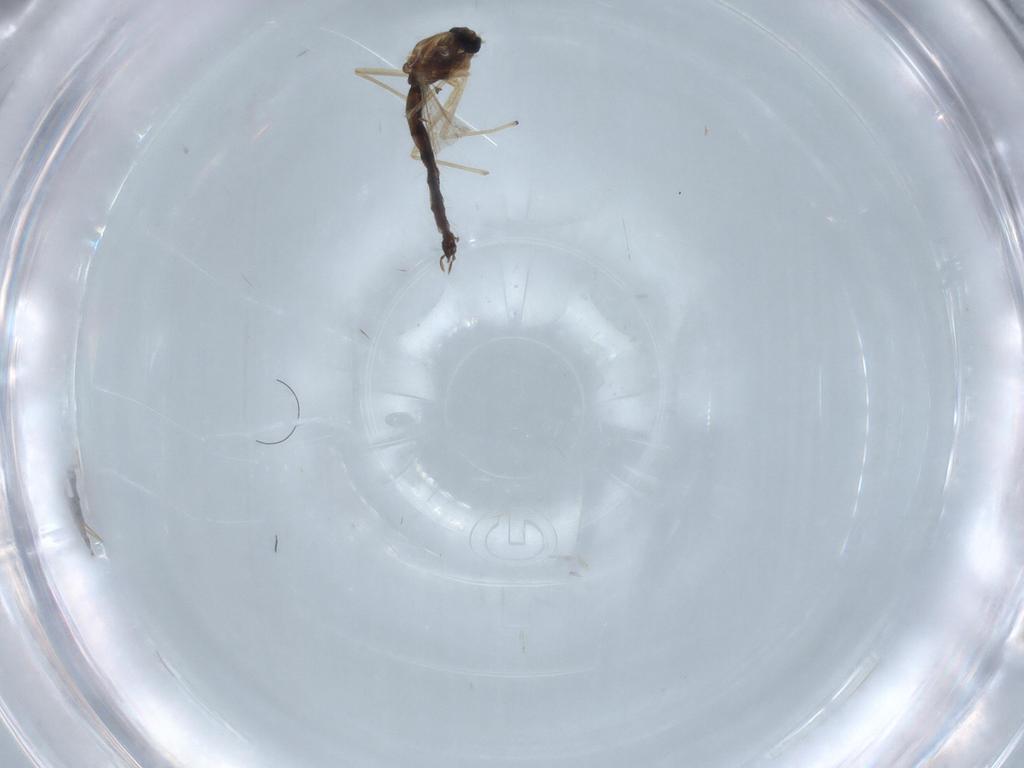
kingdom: Animalia
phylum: Arthropoda
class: Insecta
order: Diptera
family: Chironomidae
